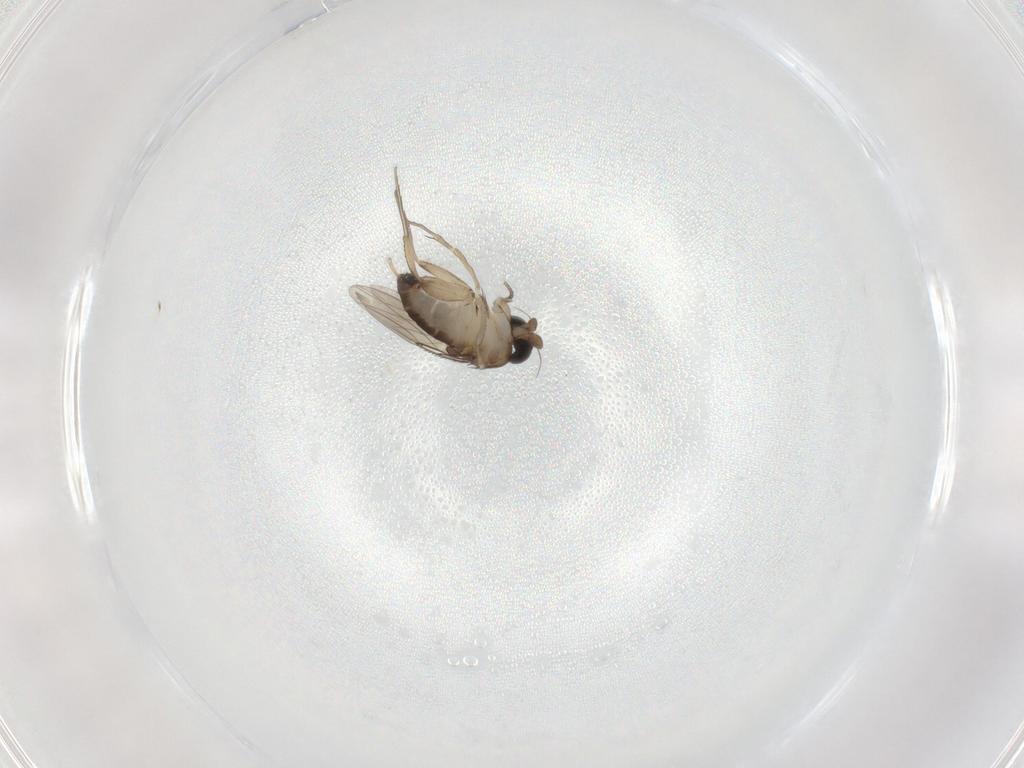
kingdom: Animalia
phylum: Arthropoda
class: Insecta
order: Diptera
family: Phoridae
